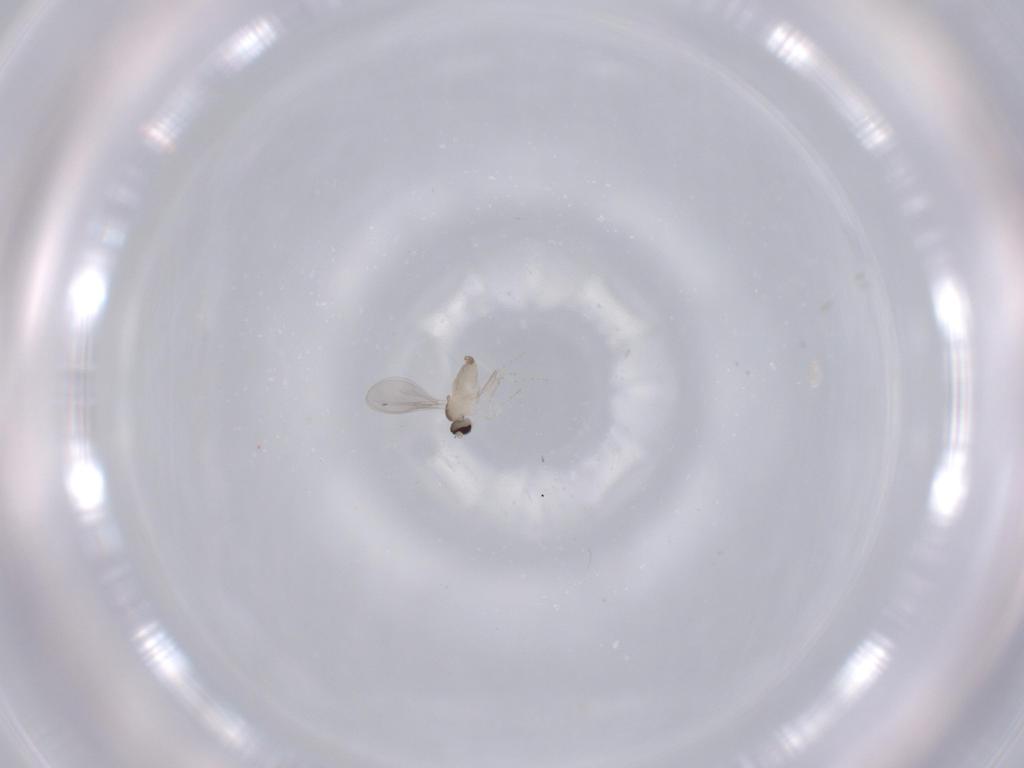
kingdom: Animalia
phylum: Arthropoda
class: Insecta
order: Diptera
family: Cecidomyiidae
